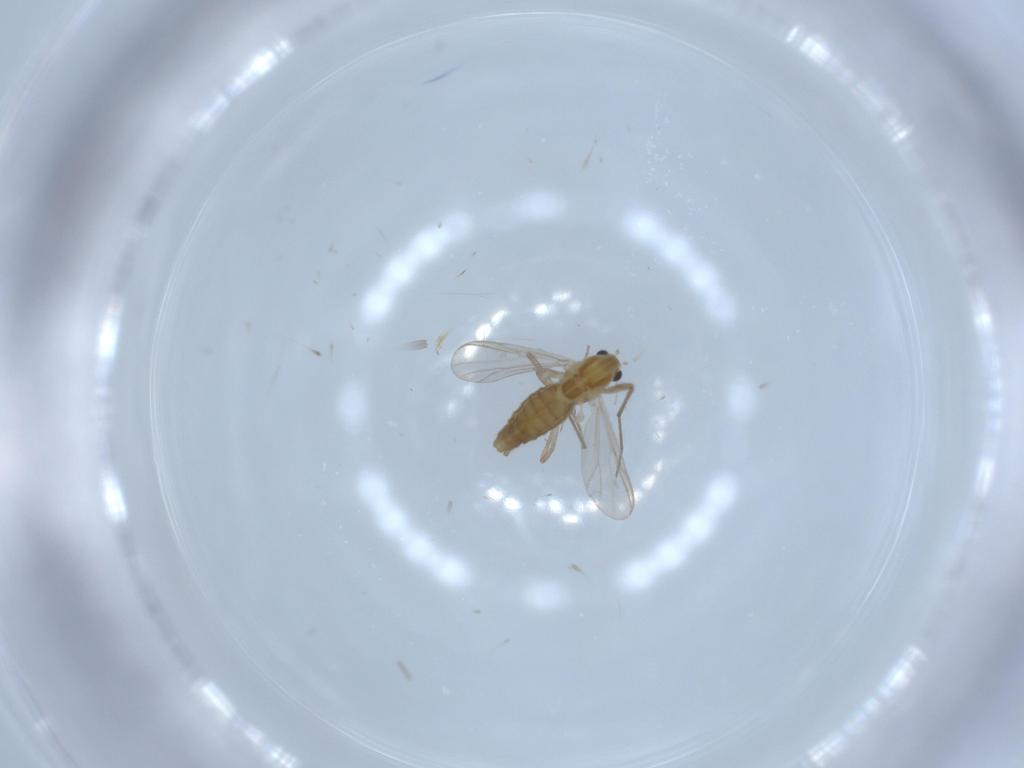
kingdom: Animalia
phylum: Arthropoda
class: Insecta
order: Diptera
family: Chironomidae
